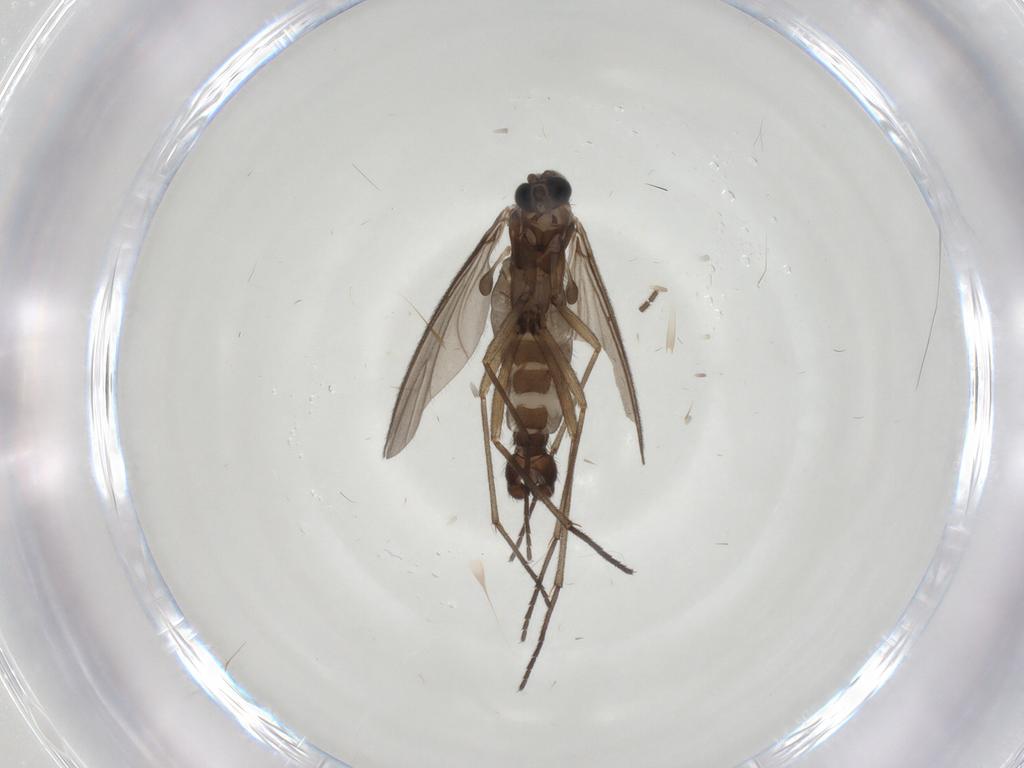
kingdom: Animalia
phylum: Arthropoda
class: Insecta
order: Diptera
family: Sciaridae
